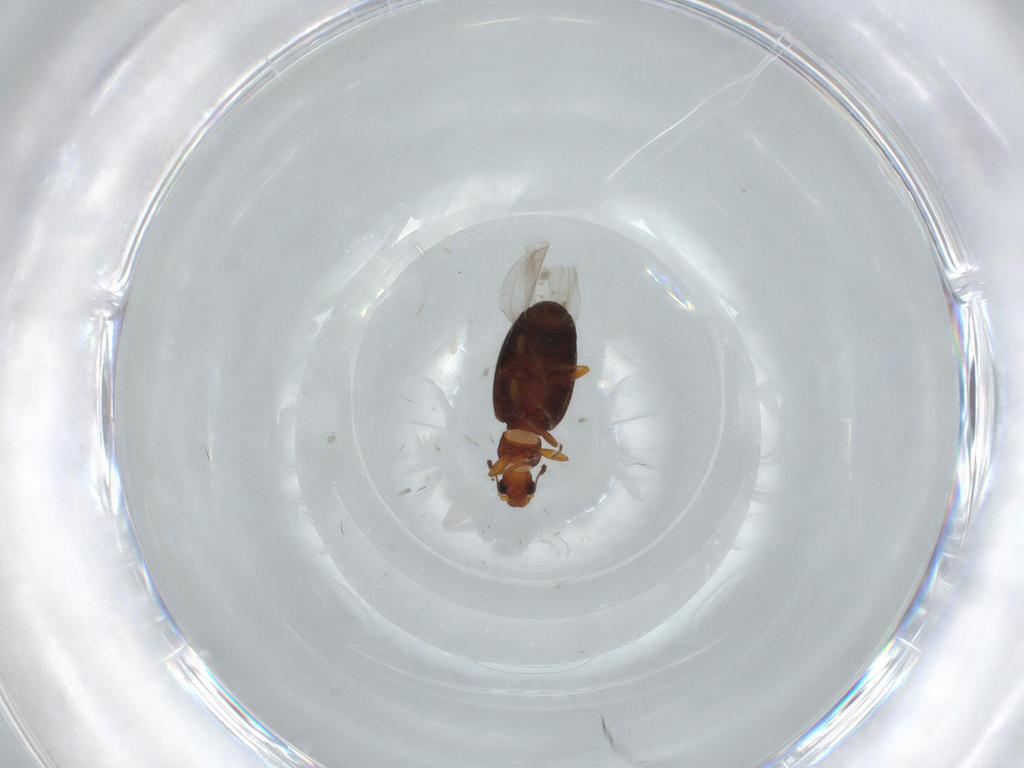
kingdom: Animalia
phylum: Arthropoda
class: Insecta
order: Coleoptera
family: Latridiidae
